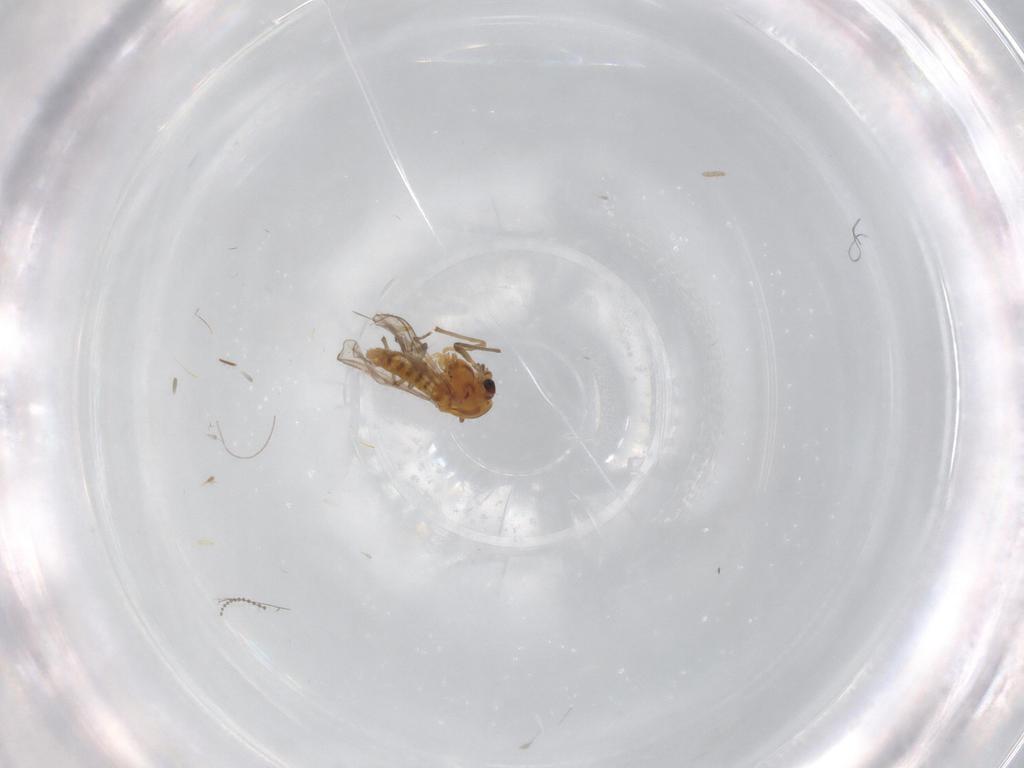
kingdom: Animalia
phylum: Arthropoda
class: Insecta
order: Diptera
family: Chironomidae
